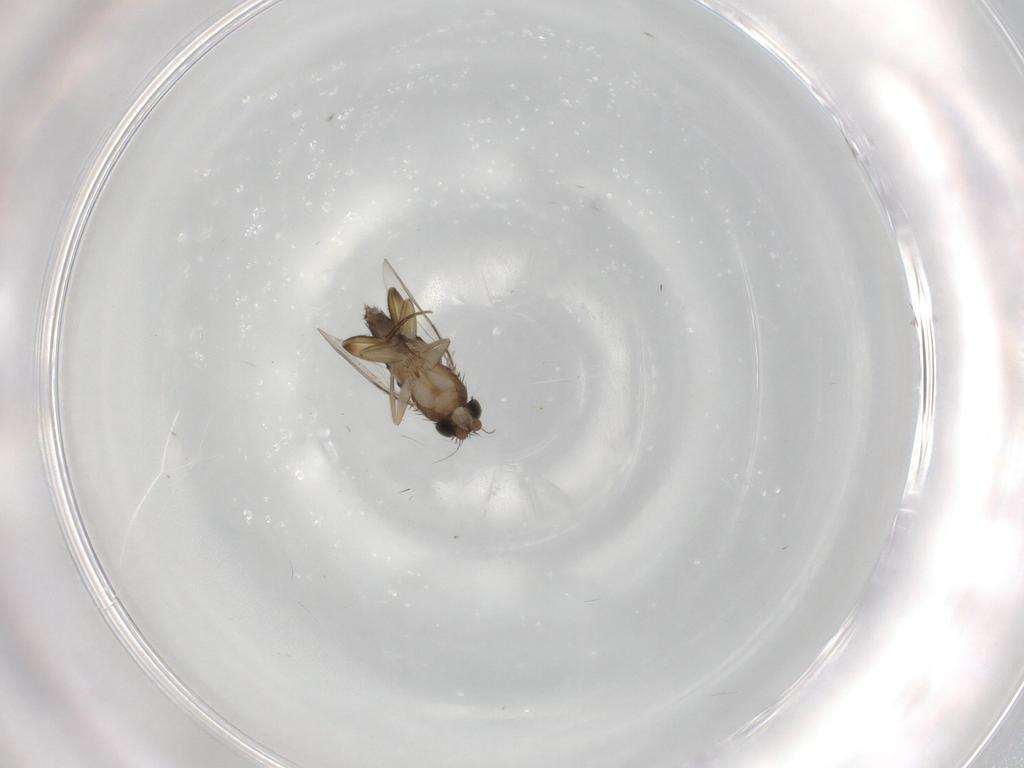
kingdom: Animalia
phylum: Arthropoda
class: Insecta
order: Diptera
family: Phoridae
